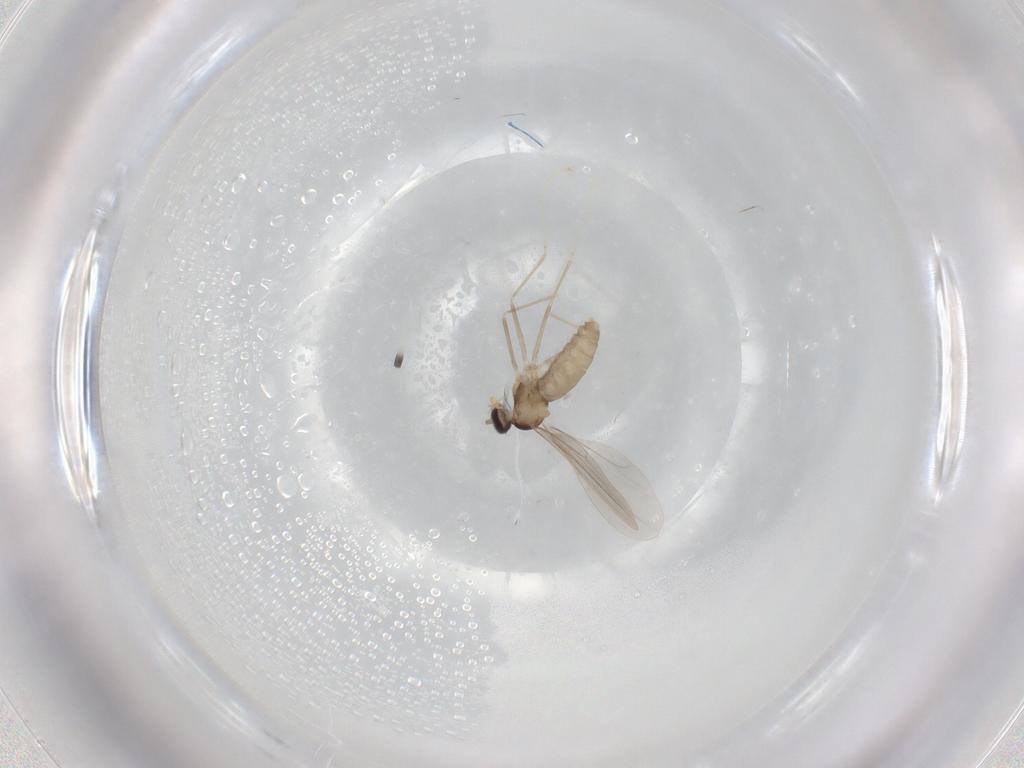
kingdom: Animalia
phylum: Arthropoda
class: Insecta
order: Diptera
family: Cecidomyiidae
